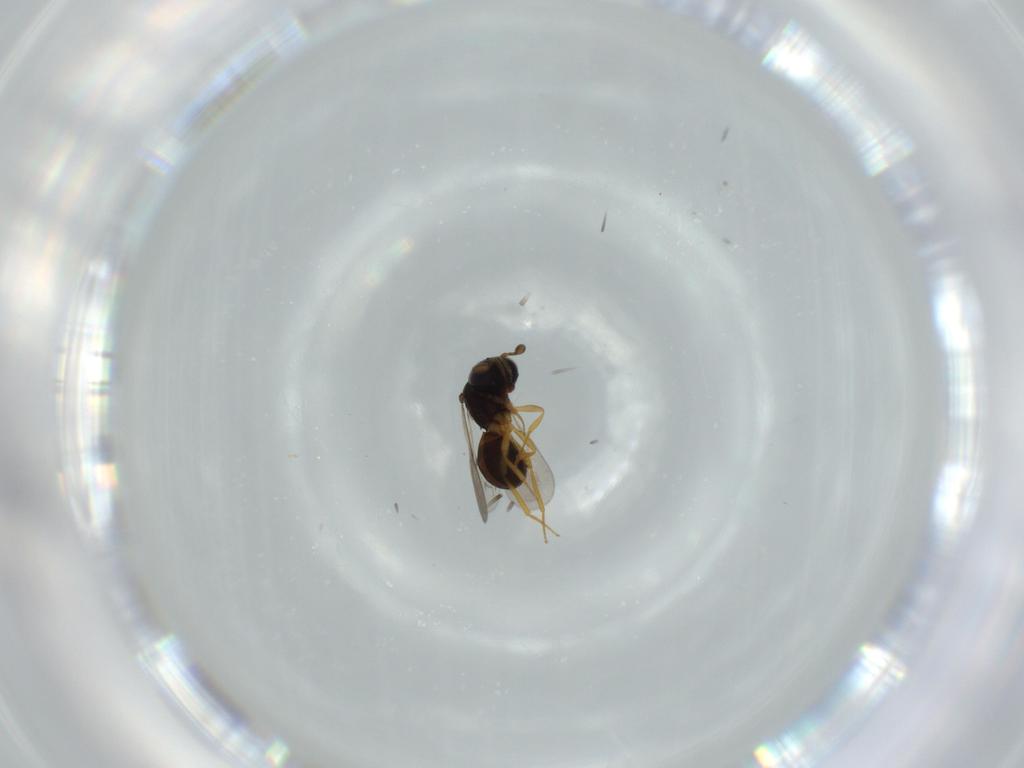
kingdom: Animalia
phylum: Arthropoda
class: Insecta
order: Hymenoptera
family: Scelionidae
